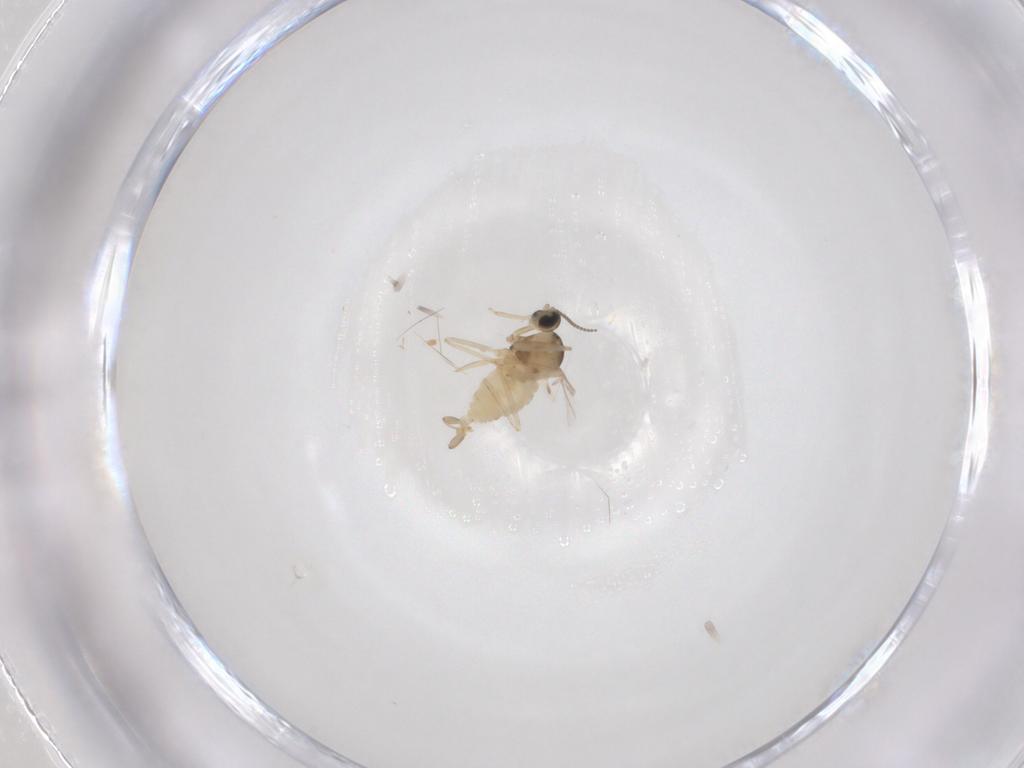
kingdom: Animalia
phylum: Arthropoda
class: Insecta
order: Diptera
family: Cecidomyiidae
